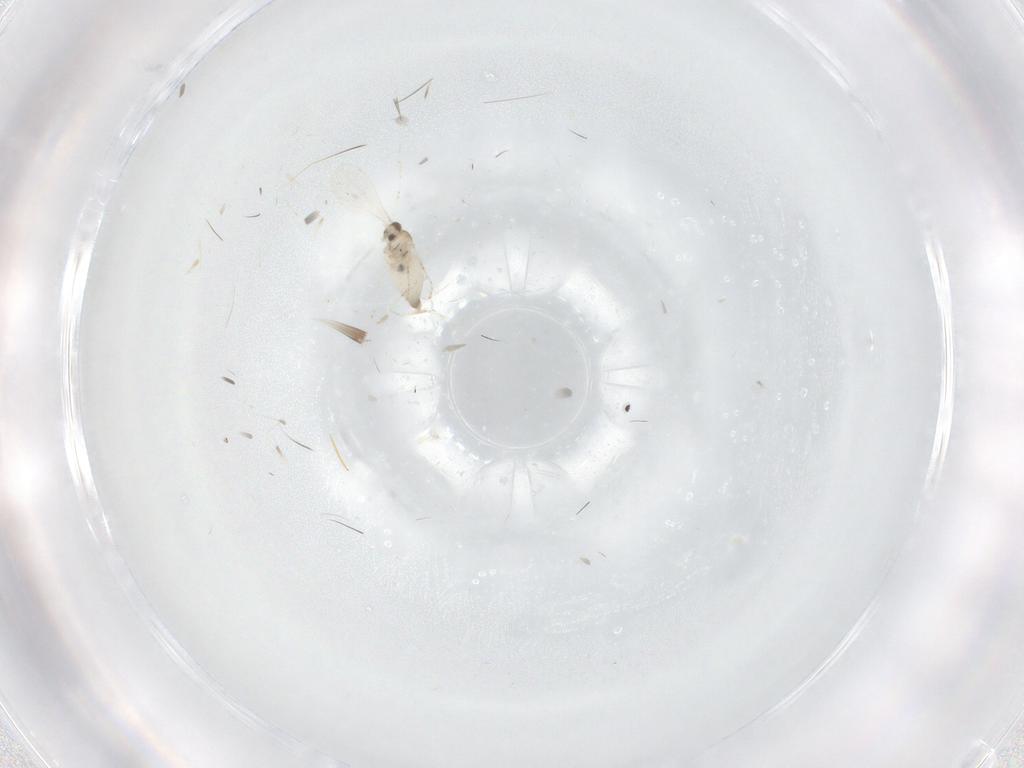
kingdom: Animalia
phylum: Arthropoda
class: Insecta
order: Diptera
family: Cecidomyiidae
